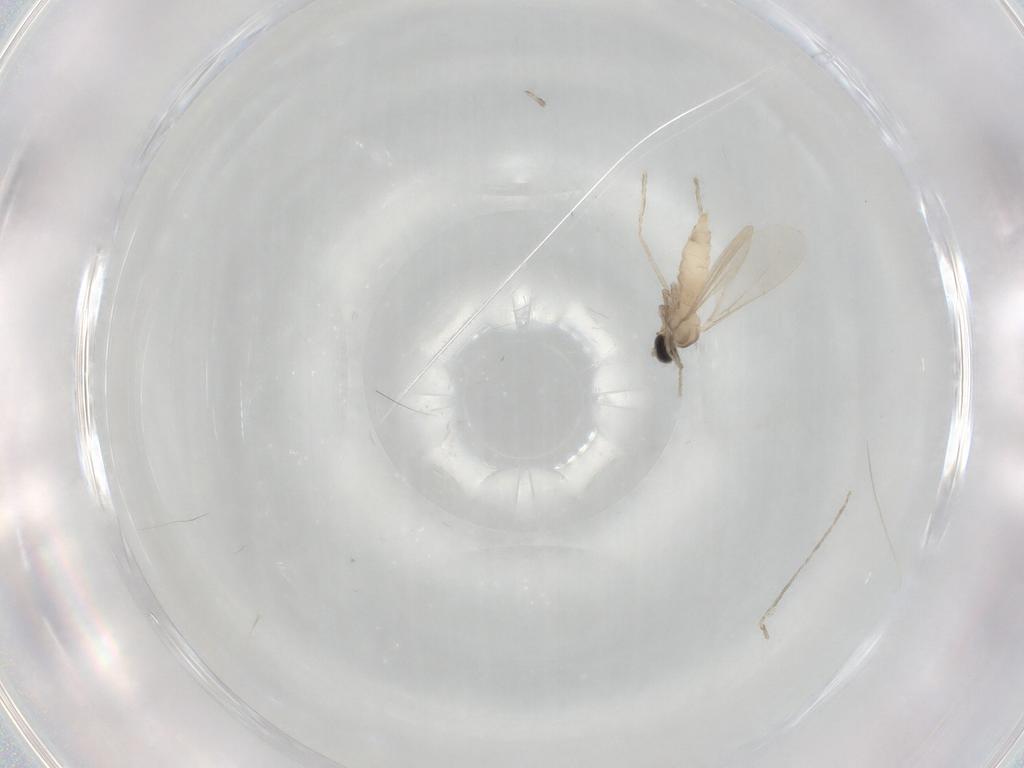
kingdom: Animalia
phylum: Arthropoda
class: Insecta
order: Diptera
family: Cecidomyiidae
